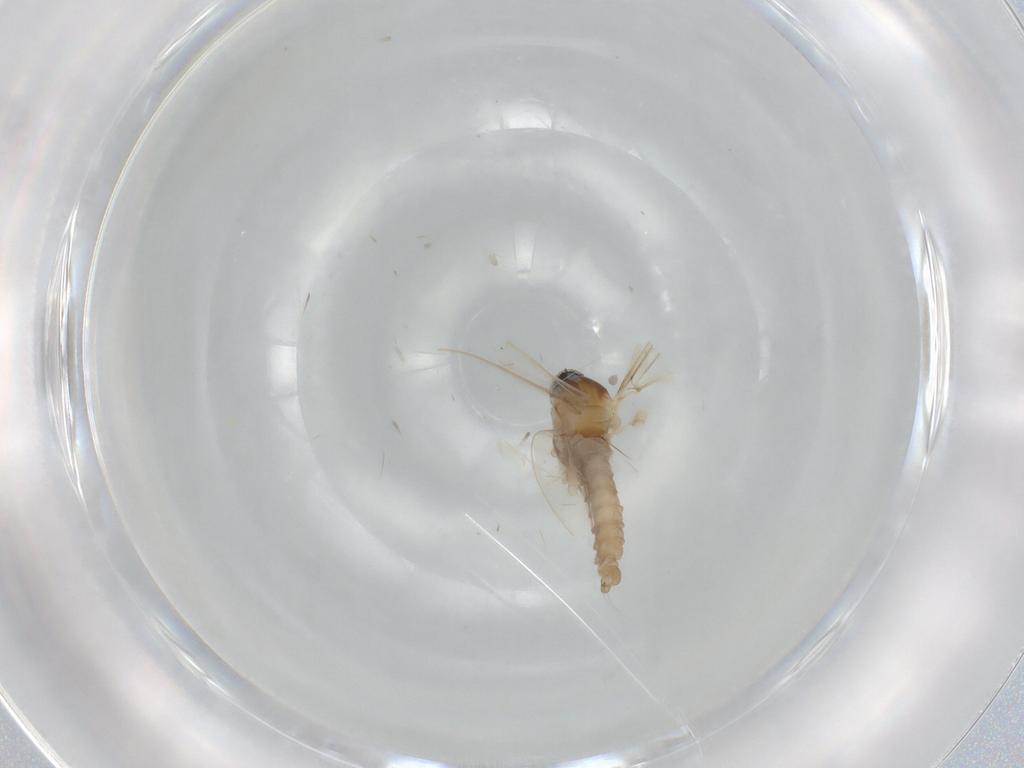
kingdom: Animalia
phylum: Arthropoda
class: Insecta
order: Diptera
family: Cecidomyiidae
